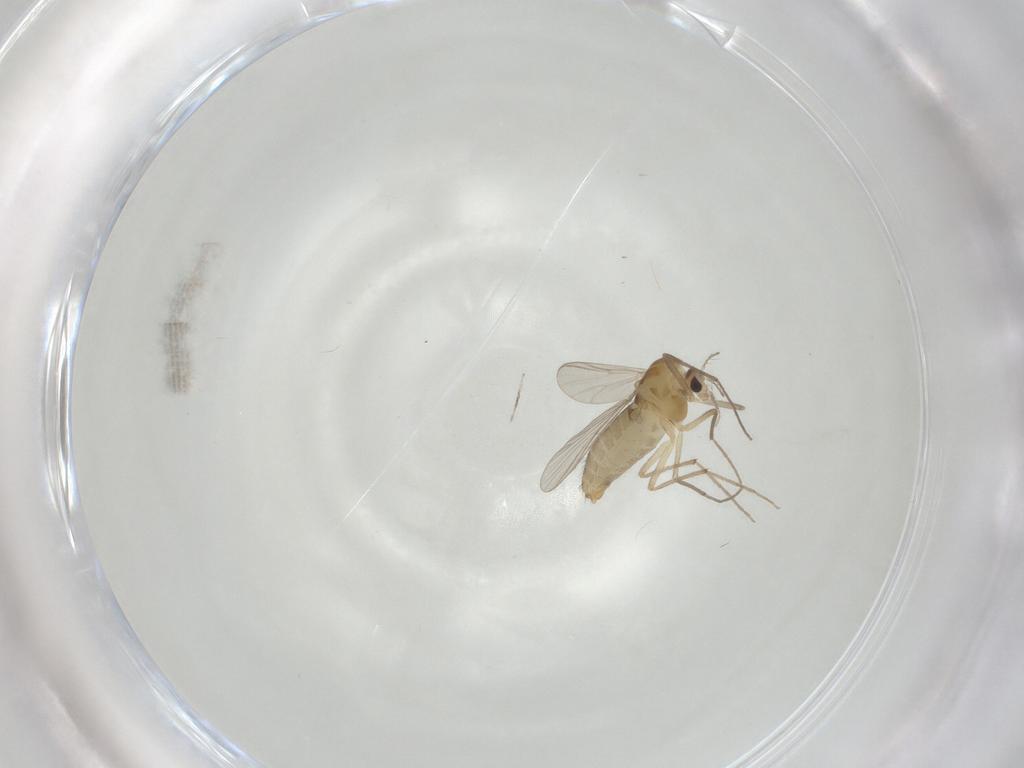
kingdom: Animalia
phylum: Arthropoda
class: Insecta
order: Diptera
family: Chironomidae
